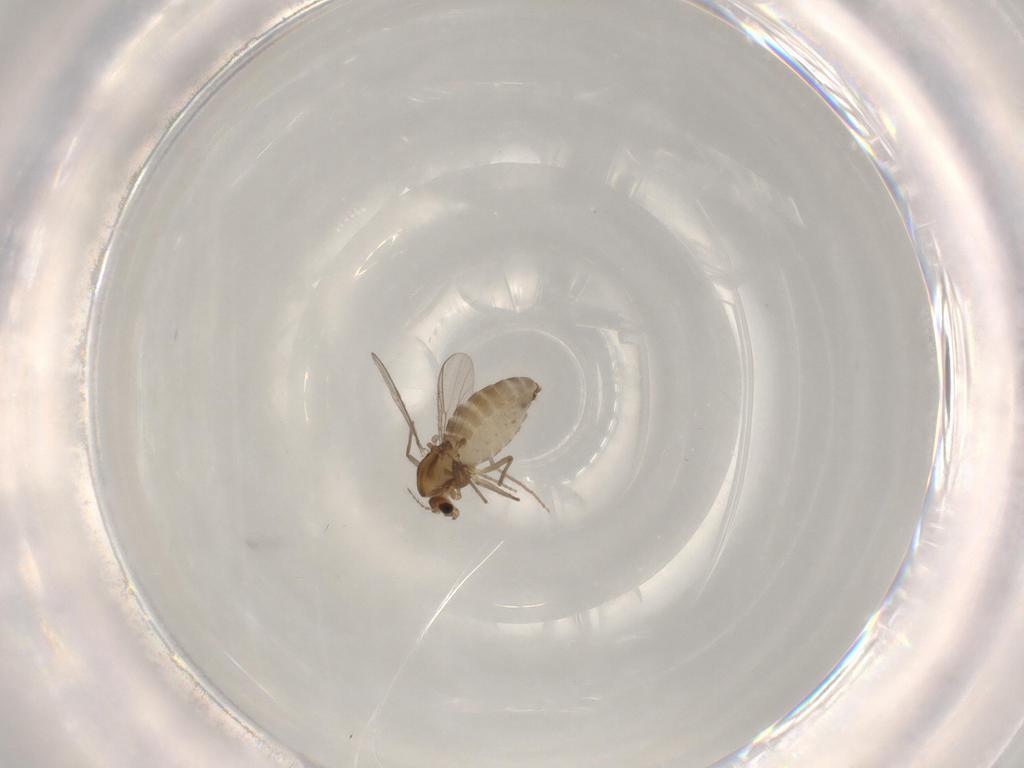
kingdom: Animalia
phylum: Arthropoda
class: Insecta
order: Diptera
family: Chironomidae
